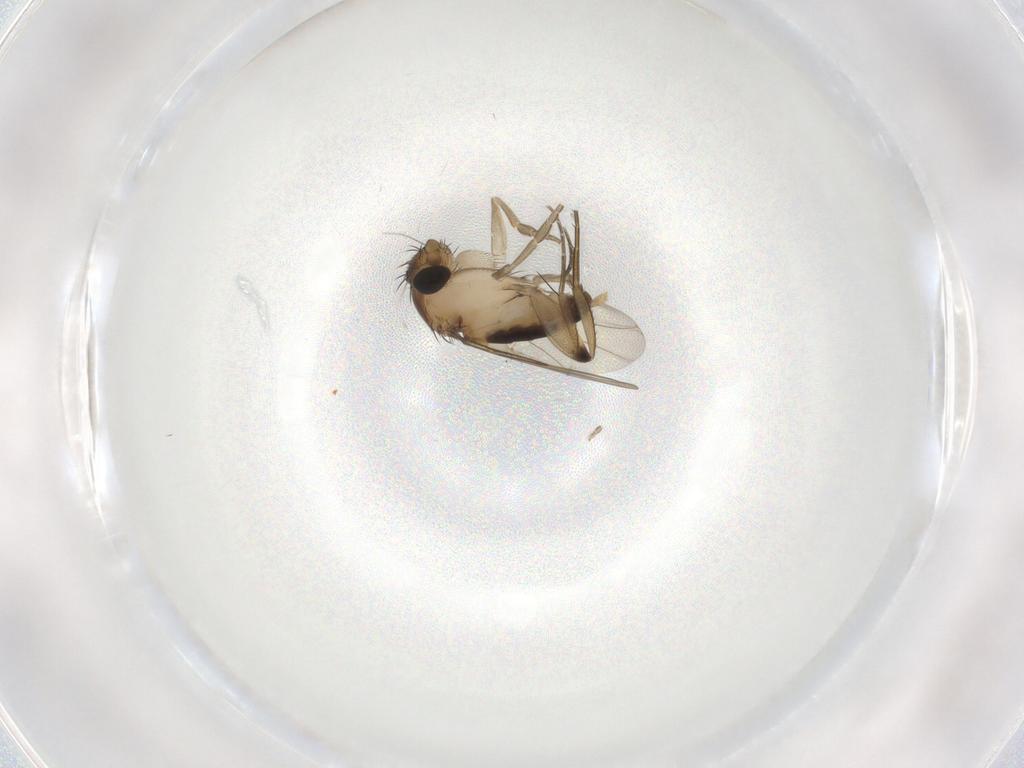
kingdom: Animalia
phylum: Arthropoda
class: Insecta
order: Diptera
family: Phoridae
